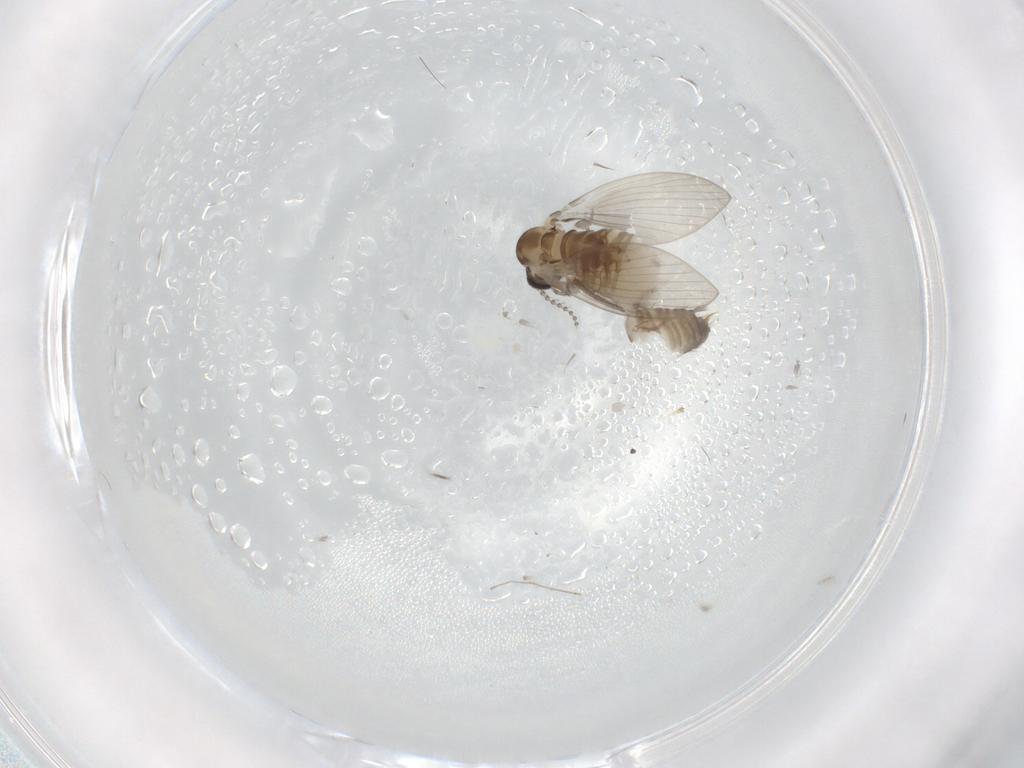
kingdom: Animalia
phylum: Arthropoda
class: Insecta
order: Diptera
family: Psychodidae
